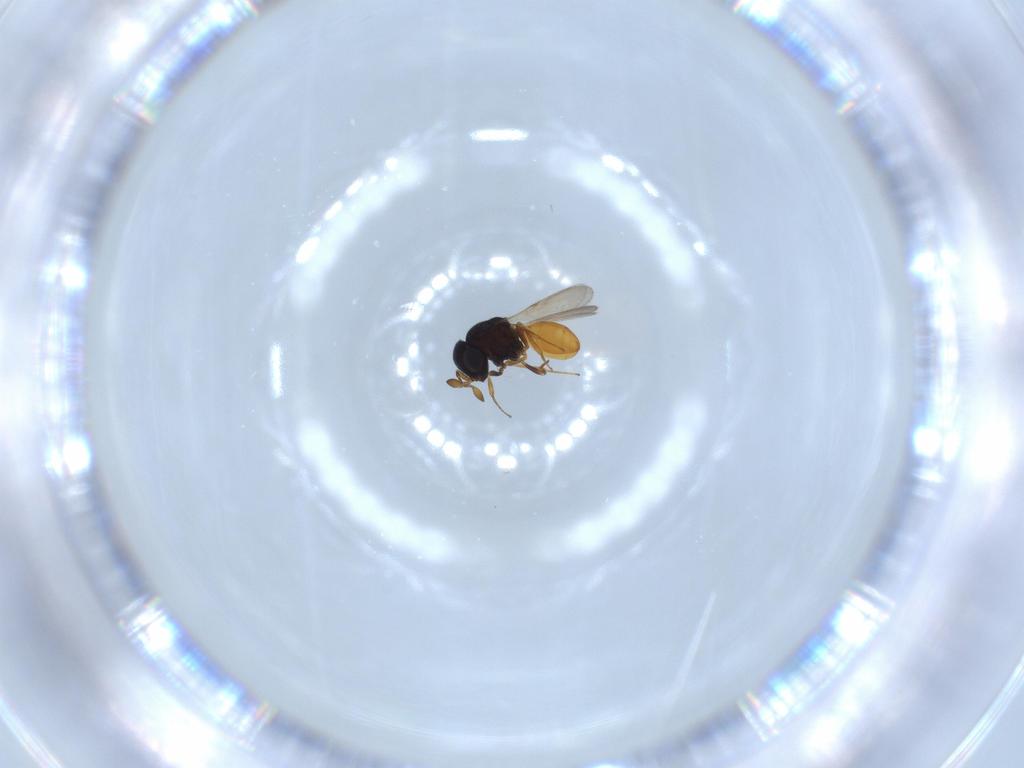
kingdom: Animalia
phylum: Arthropoda
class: Insecta
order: Hymenoptera
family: Scelionidae
